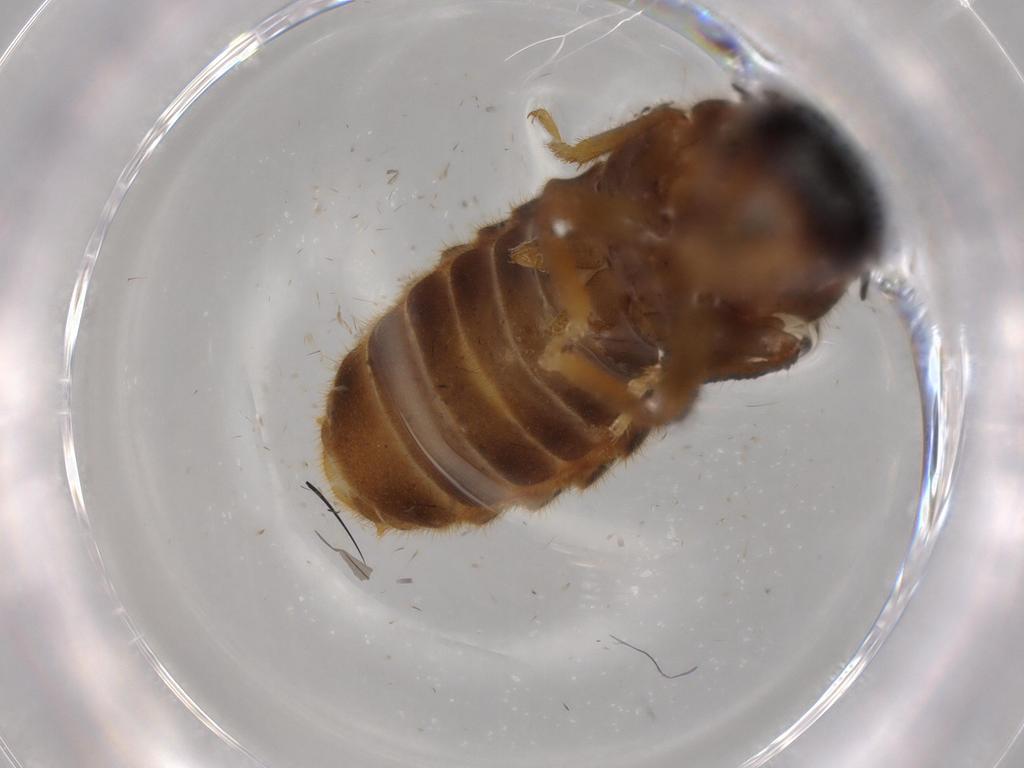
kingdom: Animalia
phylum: Arthropoda
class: Insecta
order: Blattodea
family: Termitidae
